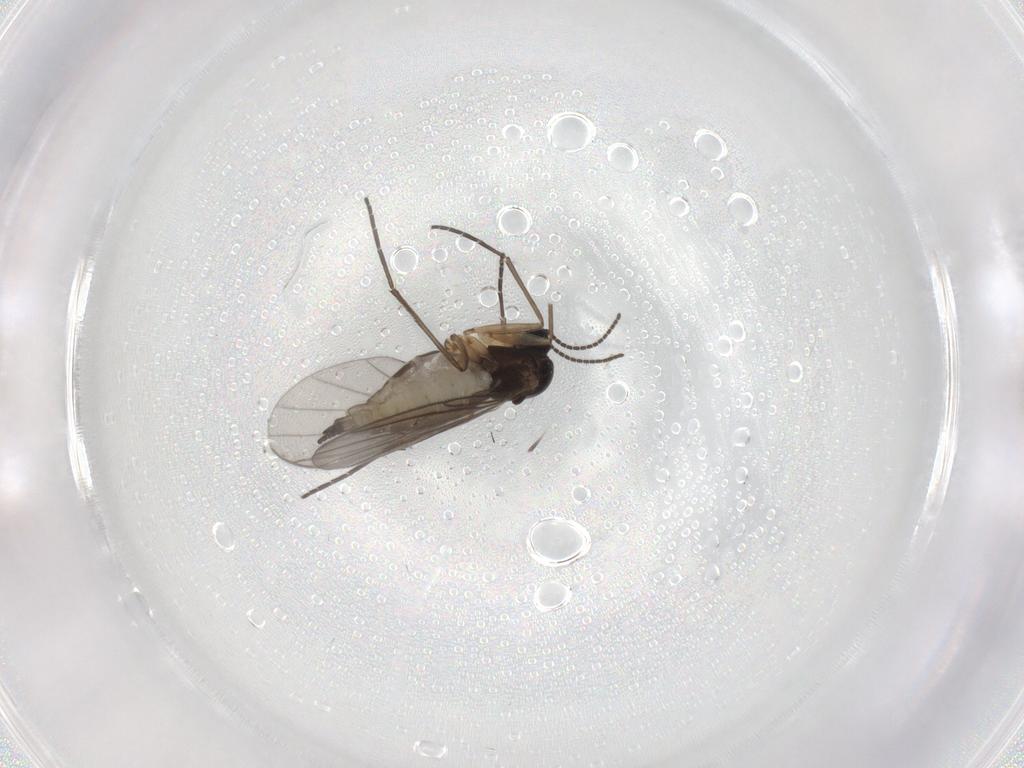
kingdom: Animalia
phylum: Arthropoda
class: Insecta
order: Diptera
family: Sciaridae
